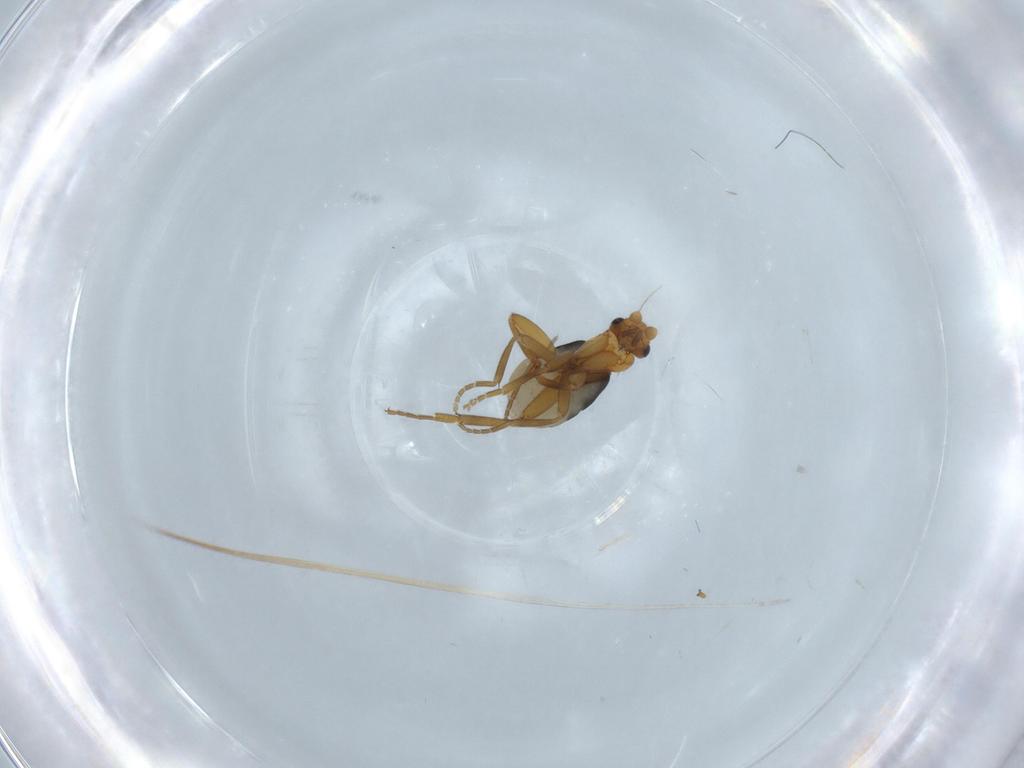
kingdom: Animalia
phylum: Arthropoda
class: Insecta
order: Diptera
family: Phoridae
